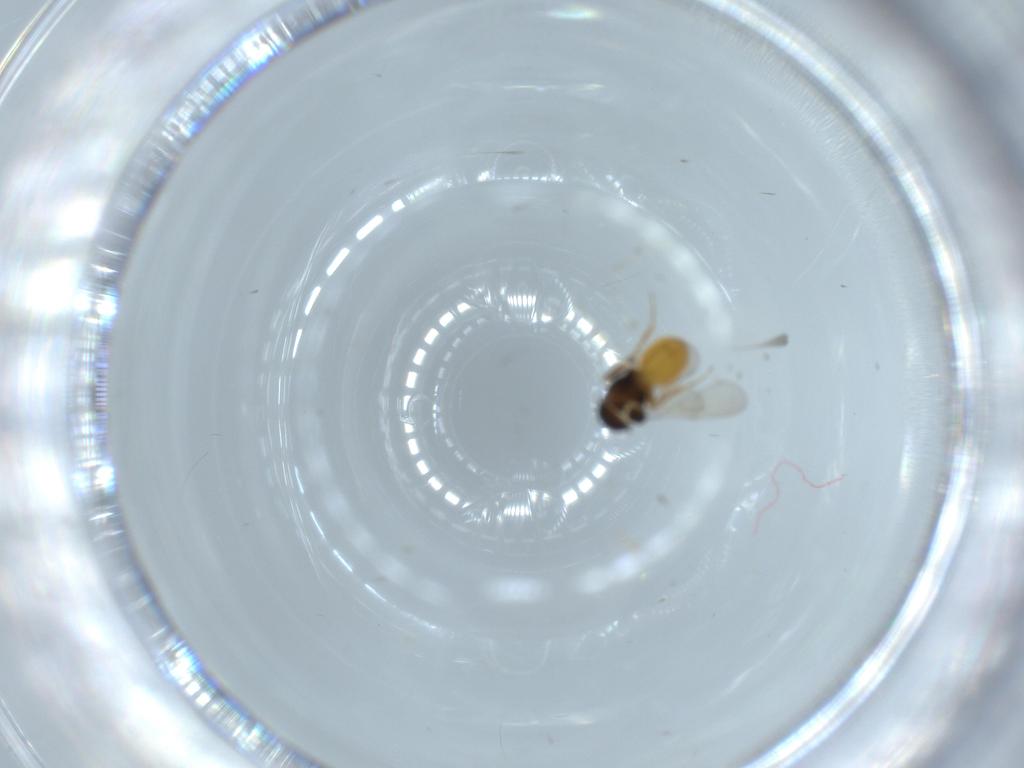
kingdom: Animalia
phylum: Arthropoda
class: Insecta
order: Hymenoptera
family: Scelionidae
